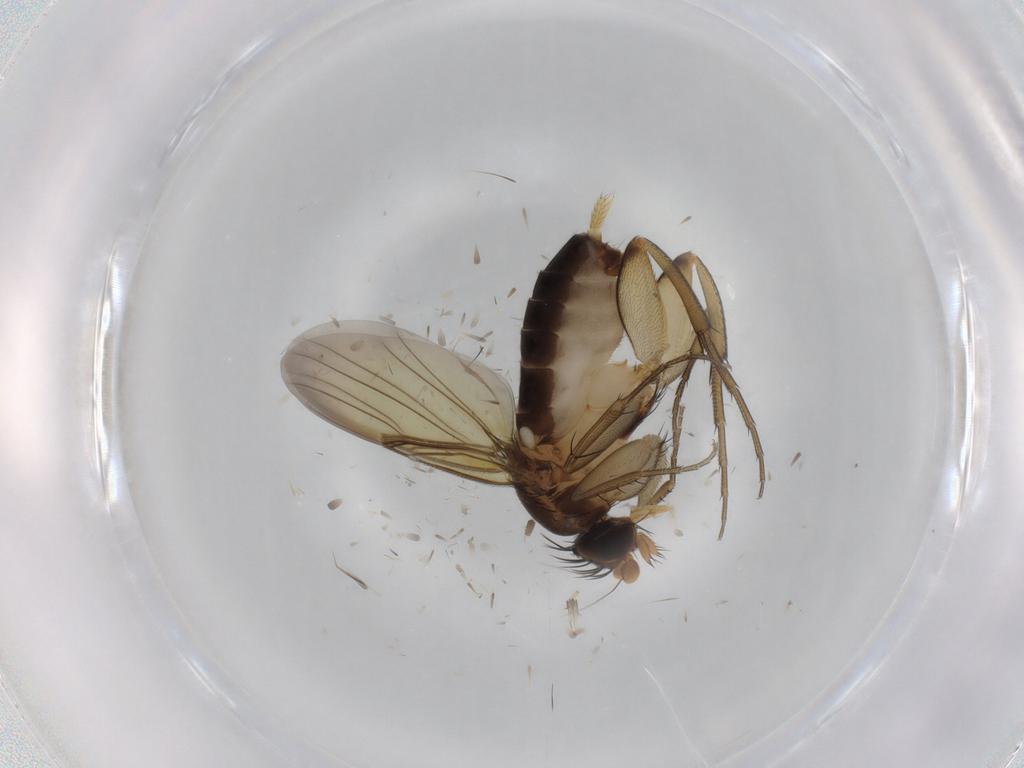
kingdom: Animalia
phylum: Arthropoda
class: Insecta
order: Diptera
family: Phoridae
